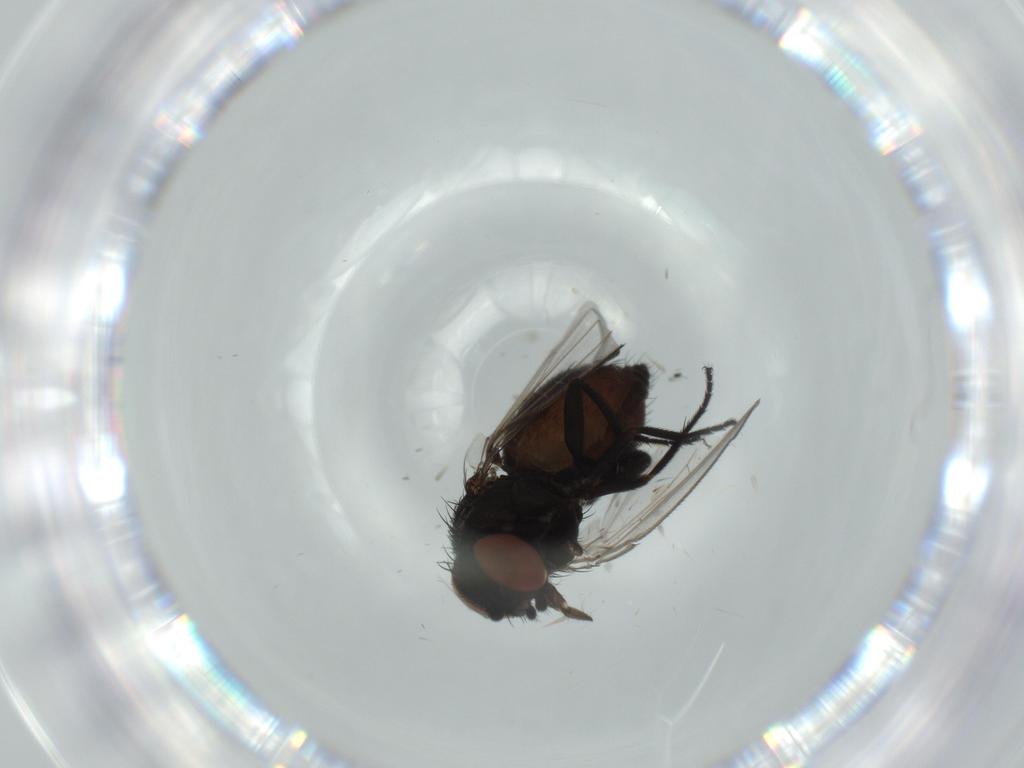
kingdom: Animalia
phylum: Arthropoda
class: Insecta
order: Diptera
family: Milichiidae
